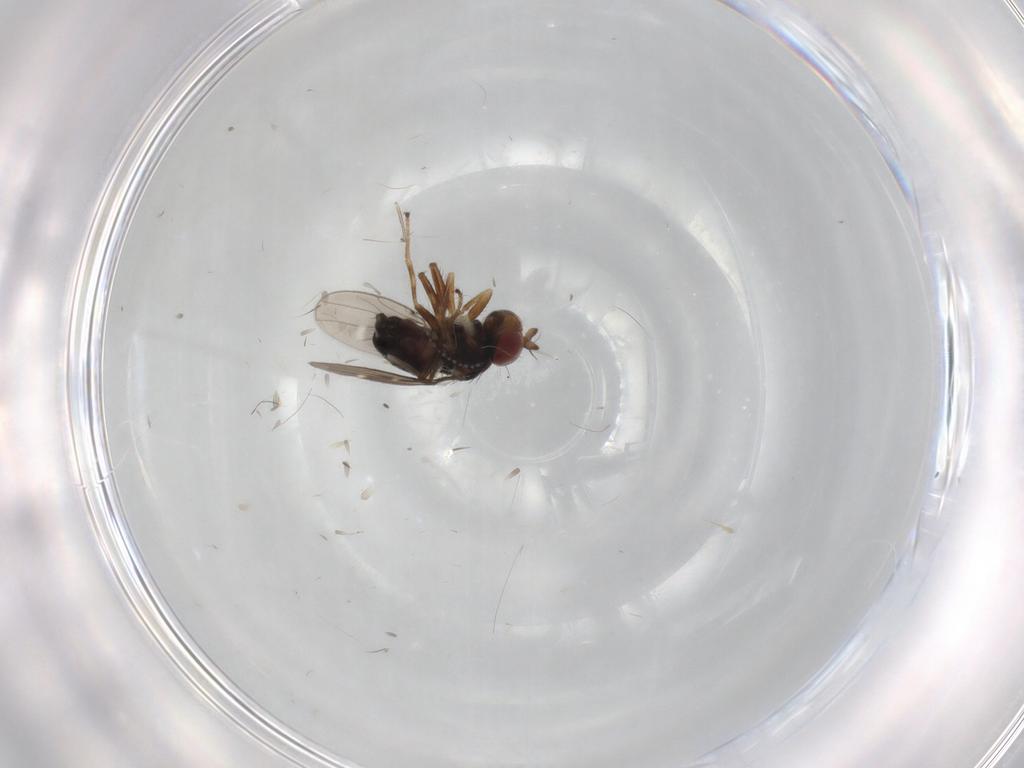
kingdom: Animalia
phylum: Arthropoda
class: Insecta
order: Diptera
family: Ephydridae
